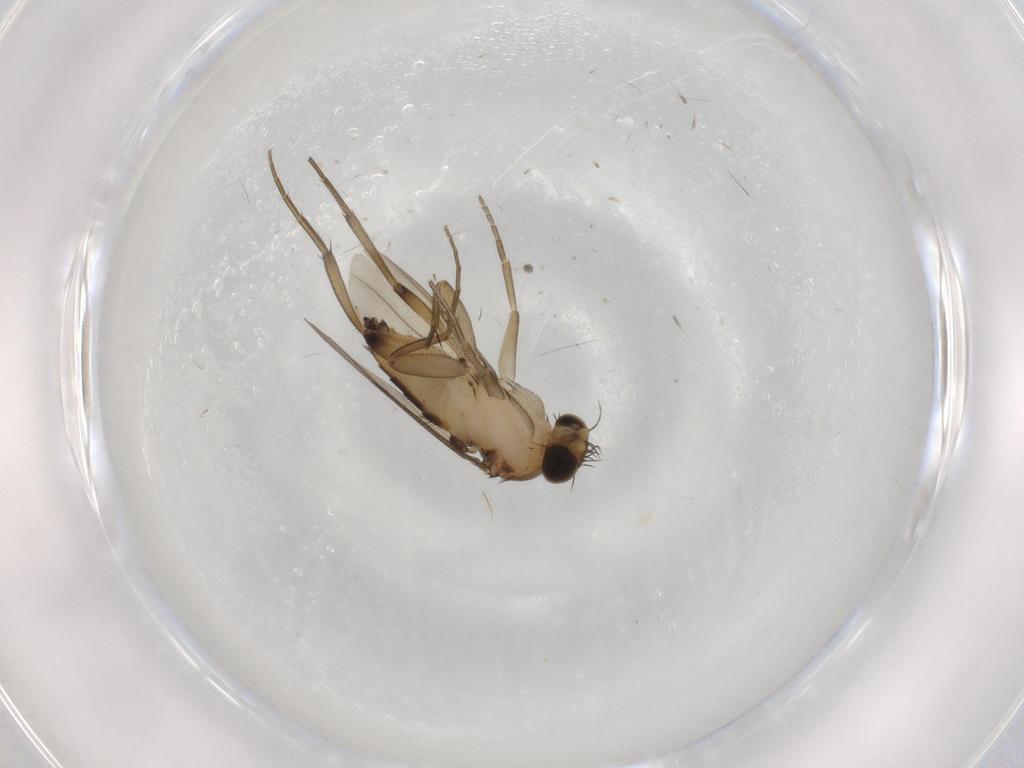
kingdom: Animalia
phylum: Arthropoda
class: Insecta
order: Diptera
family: Phoridae
